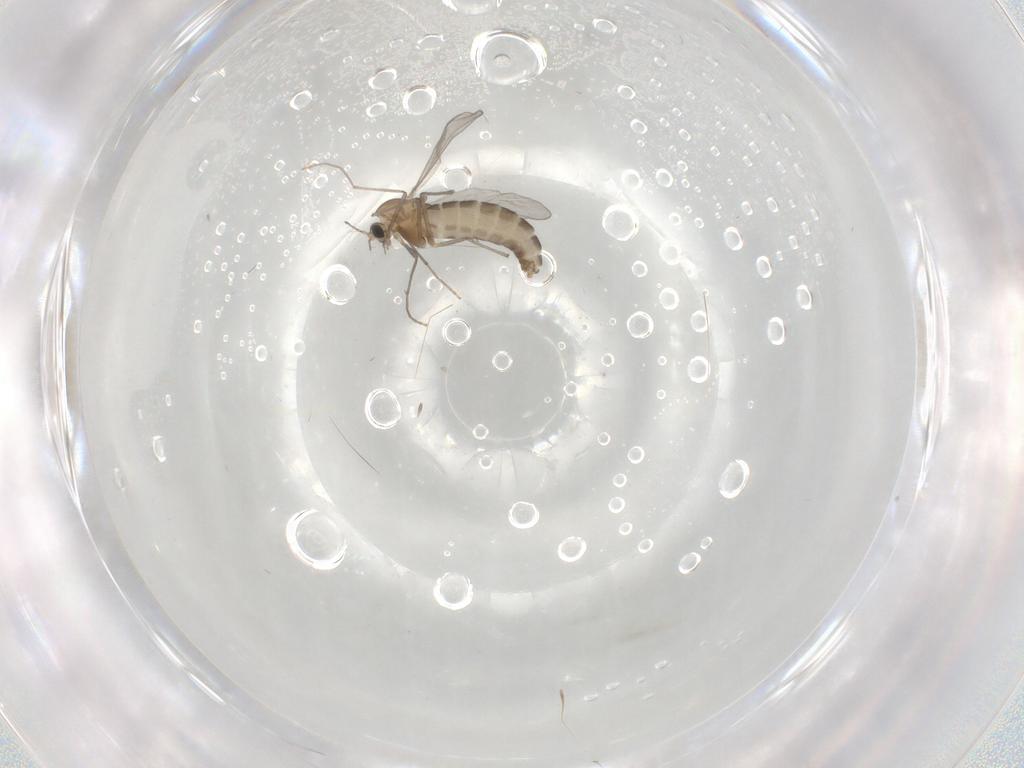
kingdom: Animalia
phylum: Arthropoda
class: Insecta
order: Diptera
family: Chironomidae
